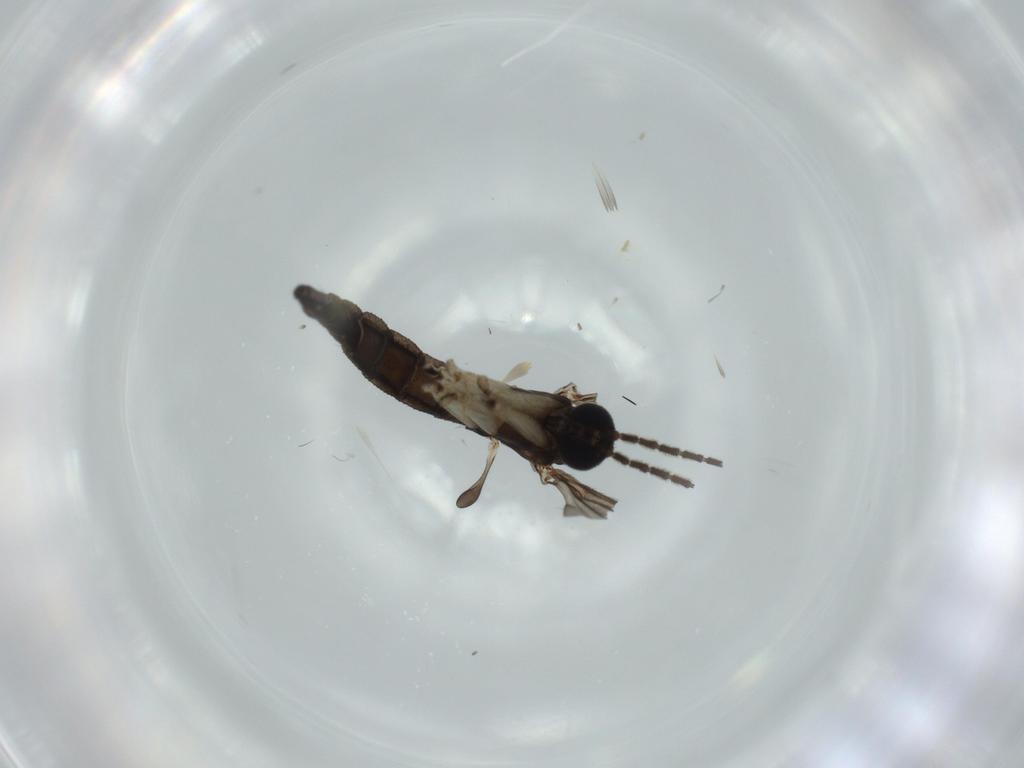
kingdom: Animalia
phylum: Arthropoda
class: Insecta
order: Diptera
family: Sciaridae
